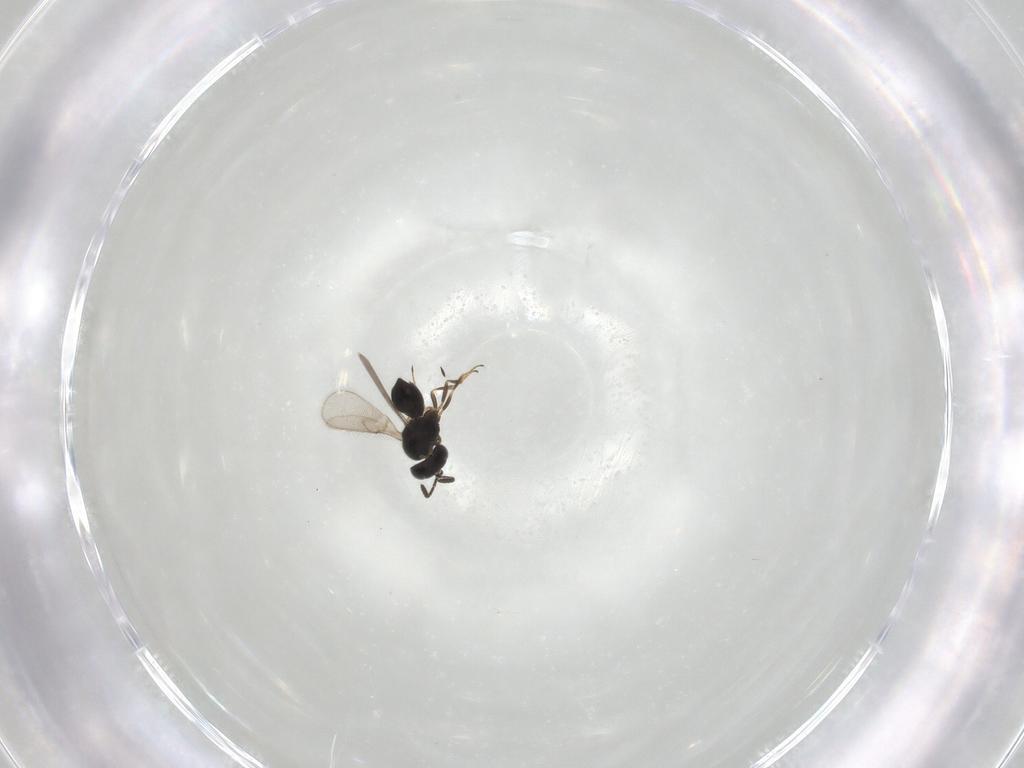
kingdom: Animalia
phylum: Arthropoda
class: Insecta
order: Hymenoptera
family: Scelionidae
